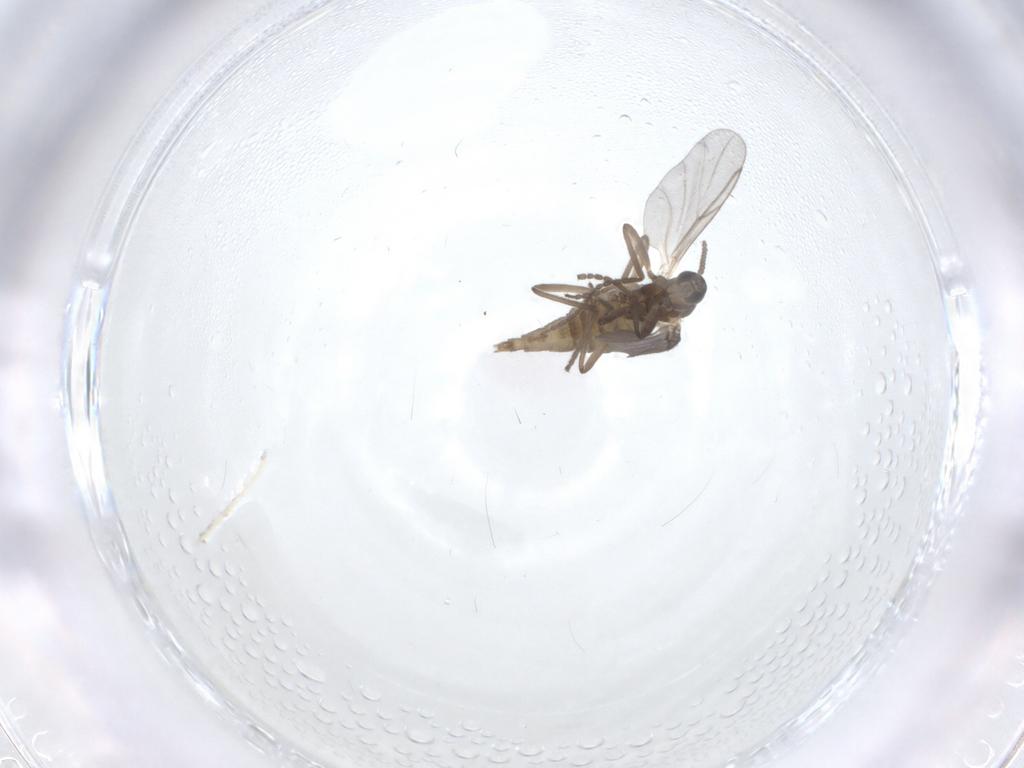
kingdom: Animalia
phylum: Arthropoda
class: Insecta
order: Diptera
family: Cecidomyiidae
